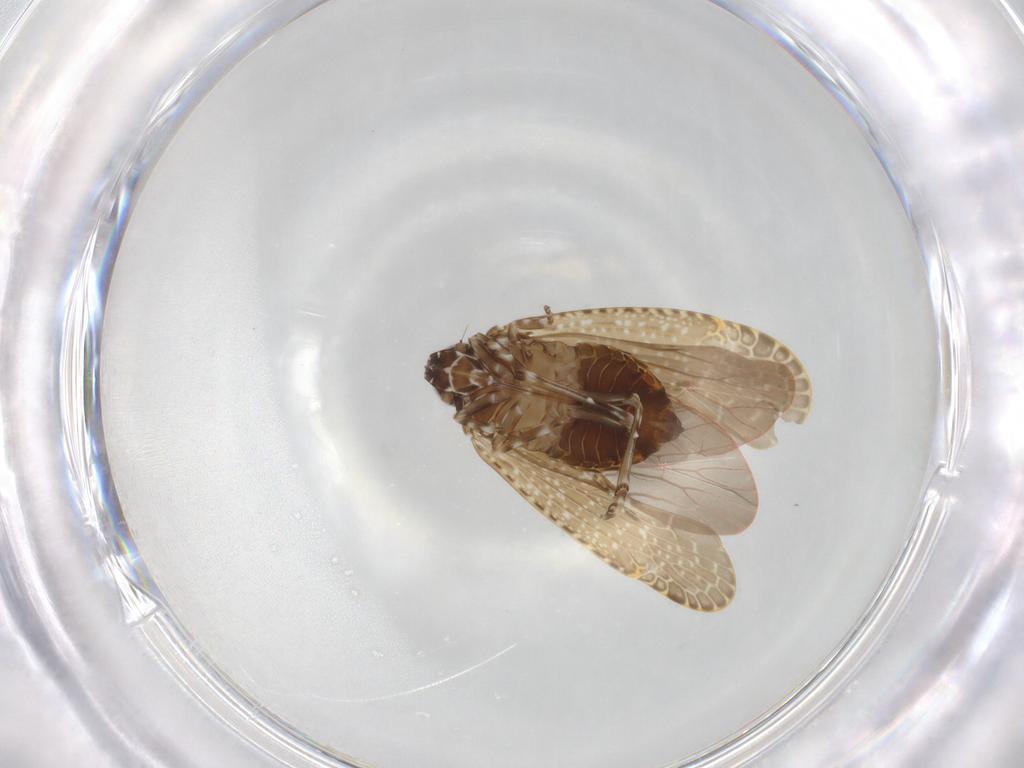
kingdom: Animalia
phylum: Arthropoda
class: Insecta
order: Hemiptera
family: Achilidae
